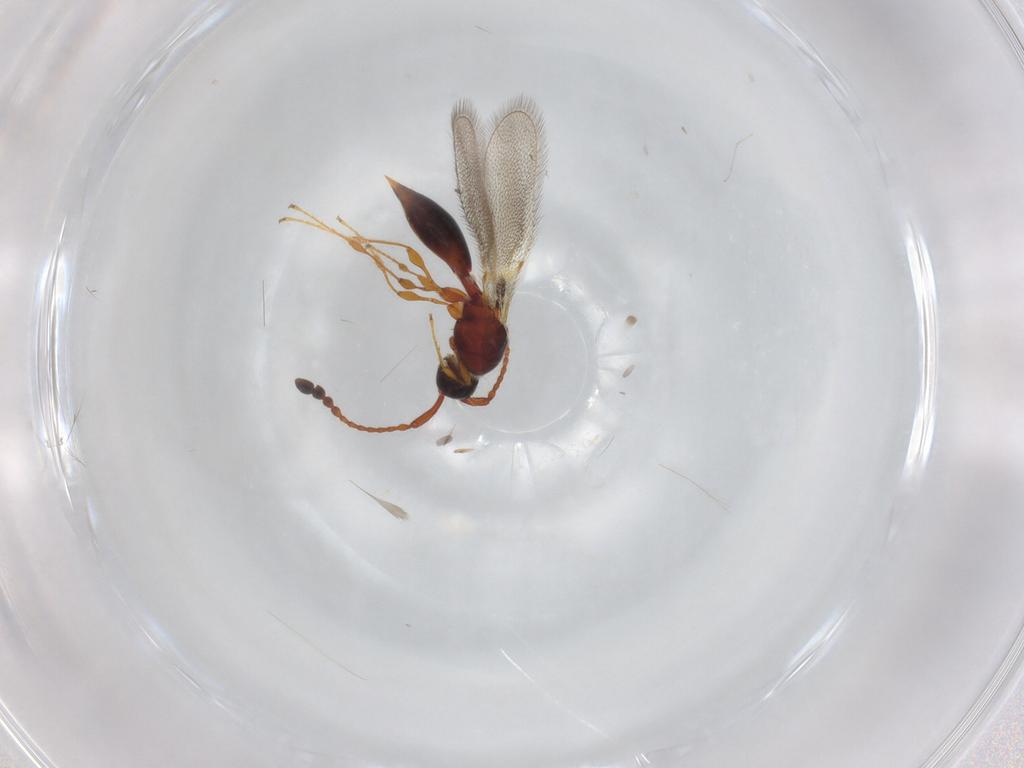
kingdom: Animalia
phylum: Arthropoda
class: Insecta
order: Hymenoptera
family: Diapriidae
